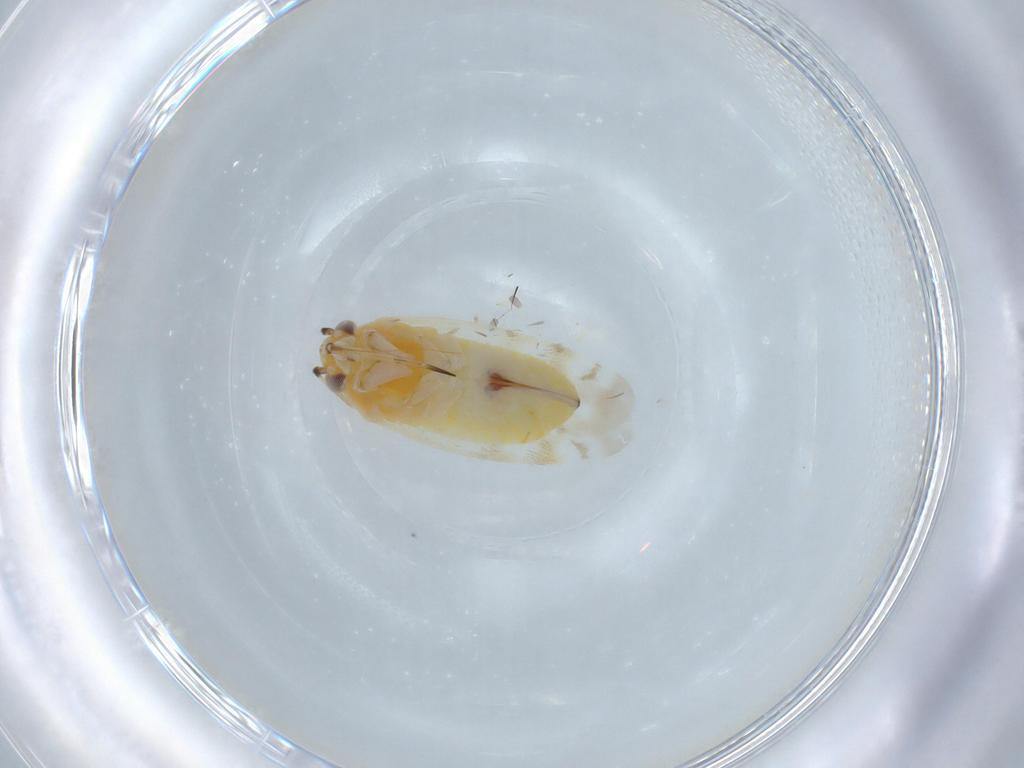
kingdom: Animalia
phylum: Arthropoda
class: Insecta
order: Hemiptera
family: Miridae
